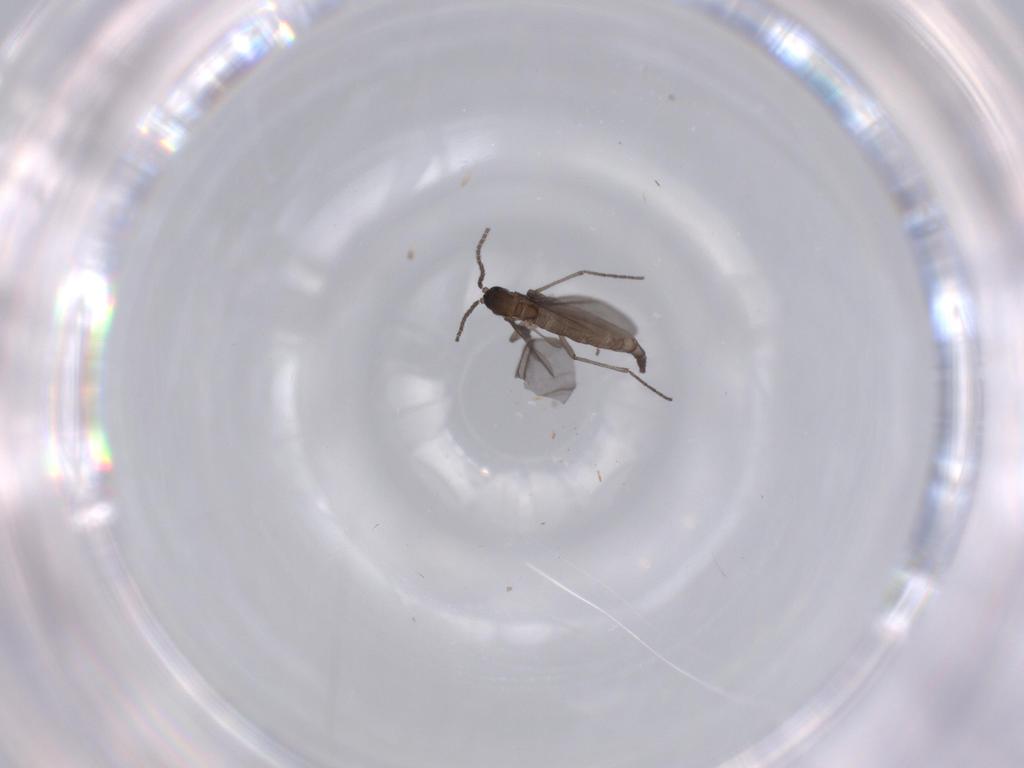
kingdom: Animalia
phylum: Arthropoda
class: Insecta
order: Diptera
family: Sciaridae
